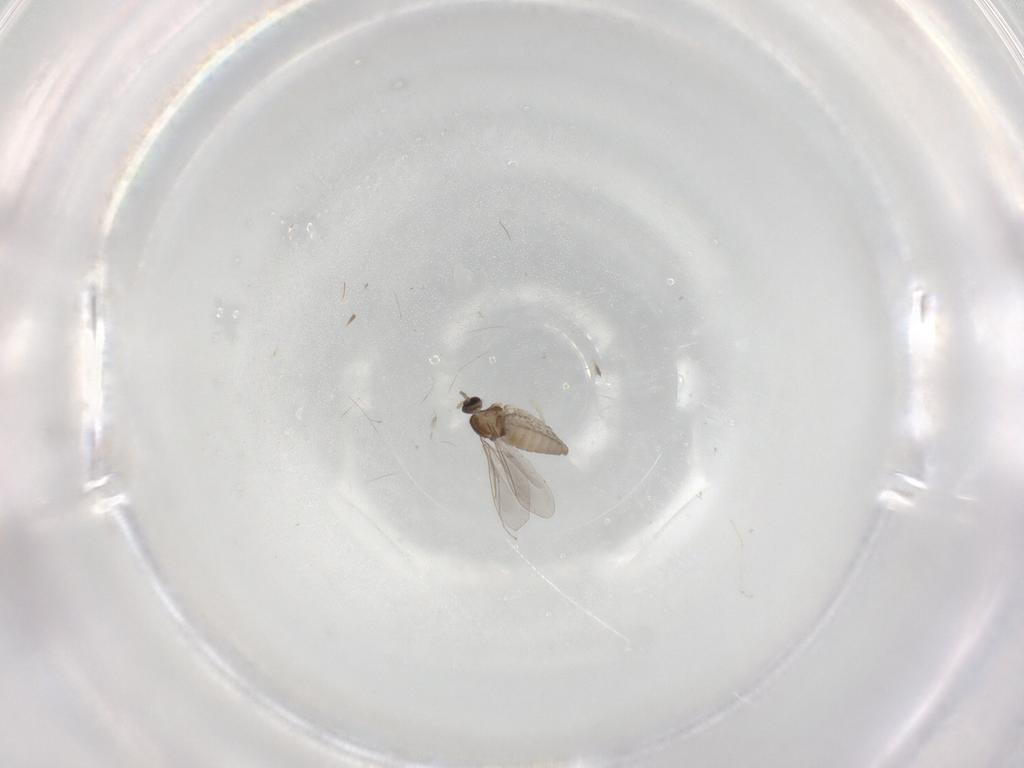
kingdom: Animalia
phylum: Arthropoda
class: Insecta
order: Diptera
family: Cecidomyiidae
